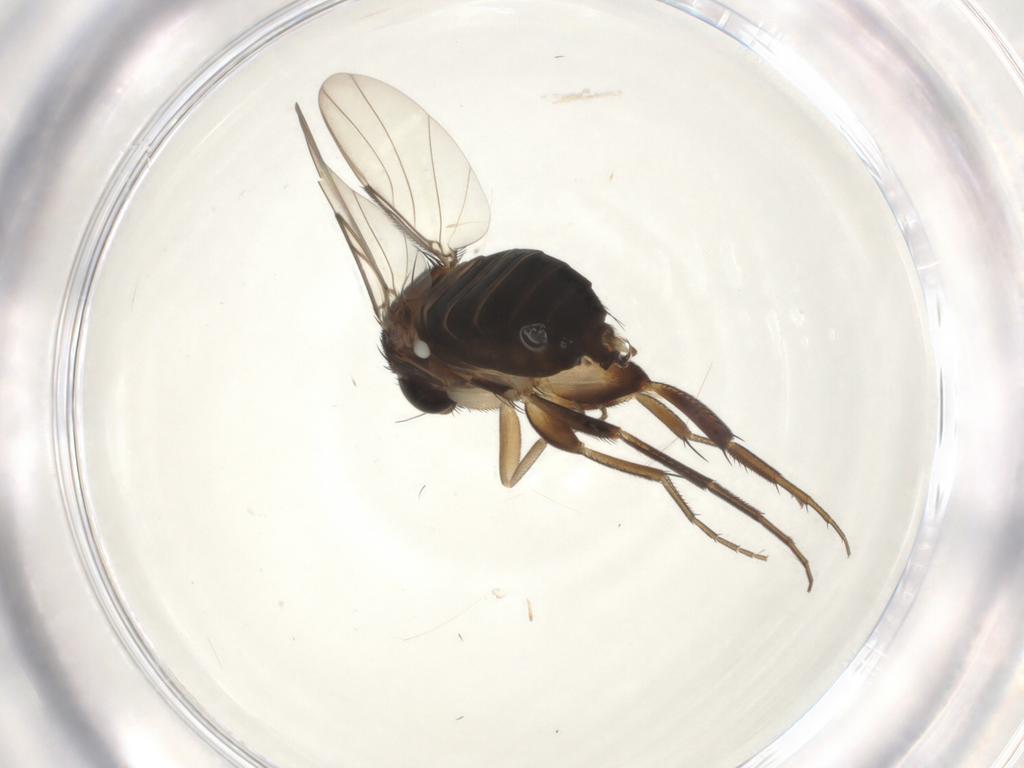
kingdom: Animalia
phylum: Arthropoda
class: Insecta
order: Diptera
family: Phoridae
